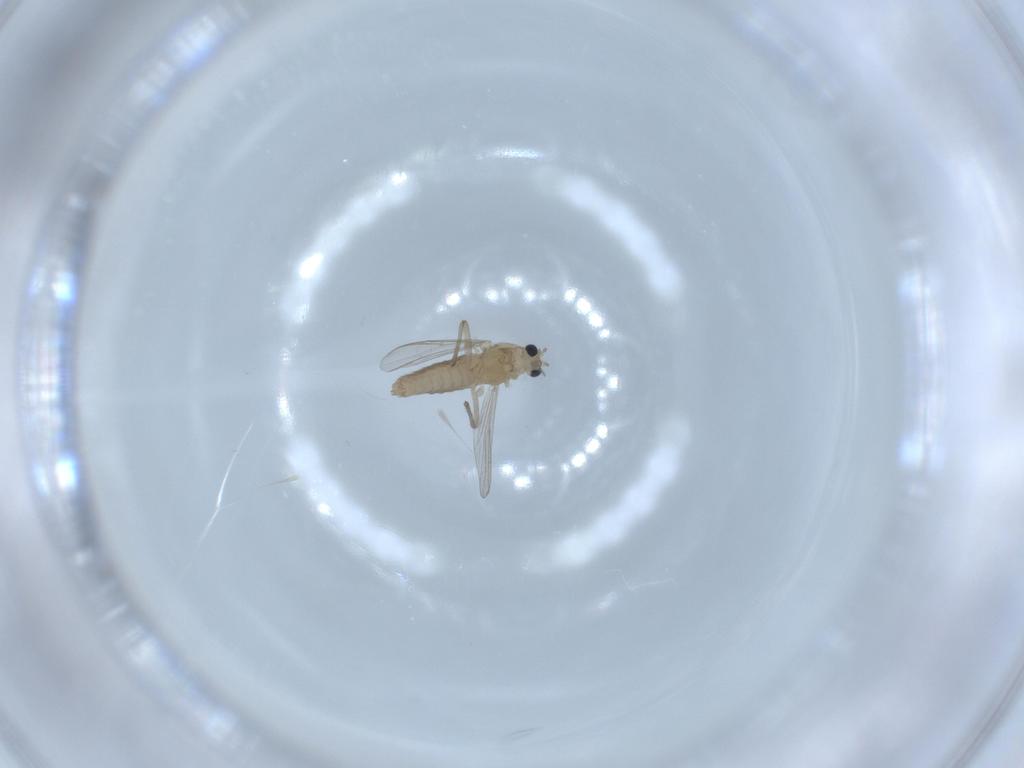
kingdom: Animalia
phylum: Arthropoda
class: Insecta
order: Diptera
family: Chironomidae
